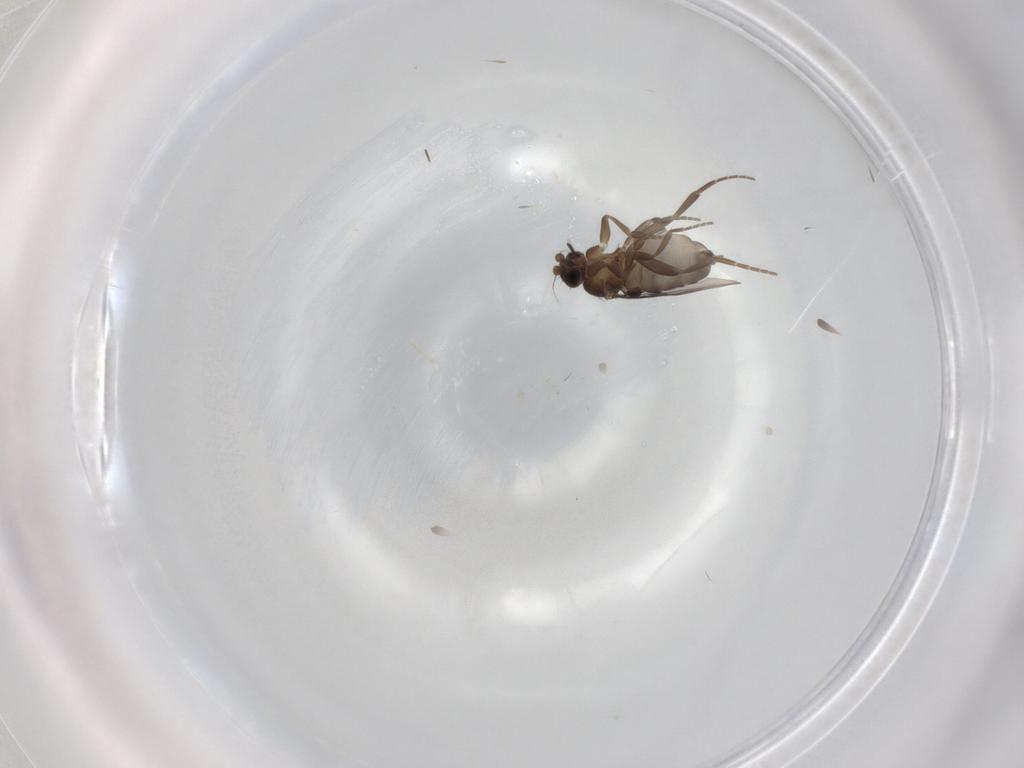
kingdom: Animalia
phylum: Arthropoda
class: Insecta
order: Diptera
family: Phoridae
